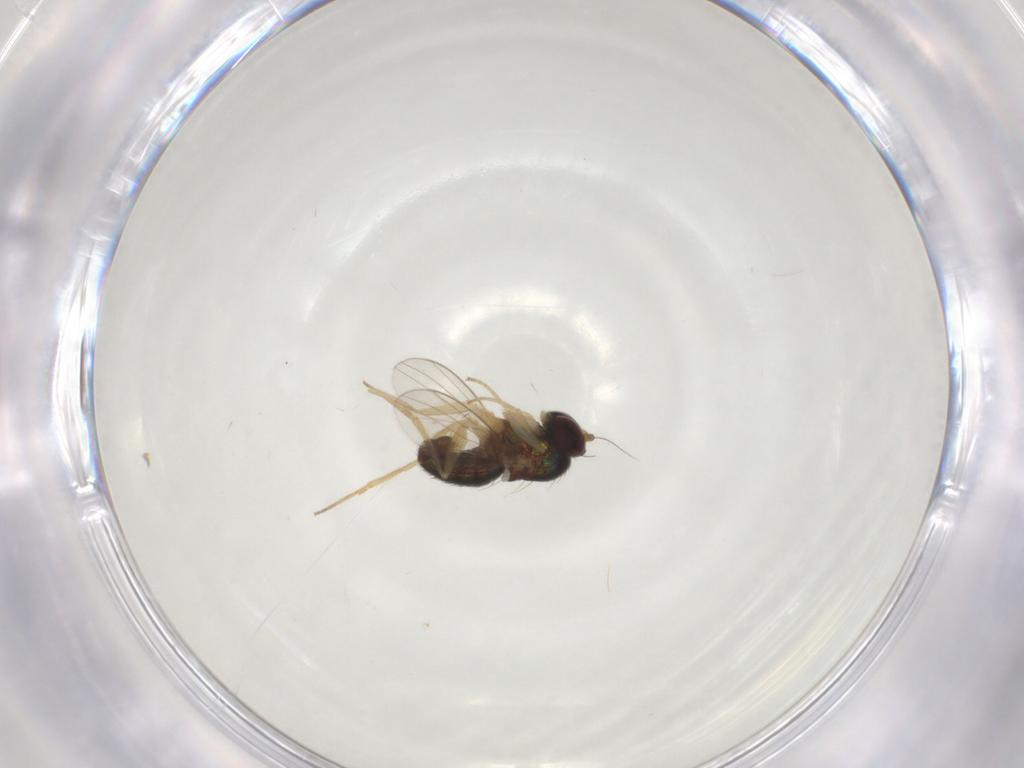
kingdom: Animalia
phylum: Arthropoda
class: Insecta
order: Diptera
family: Dolichopodidae
